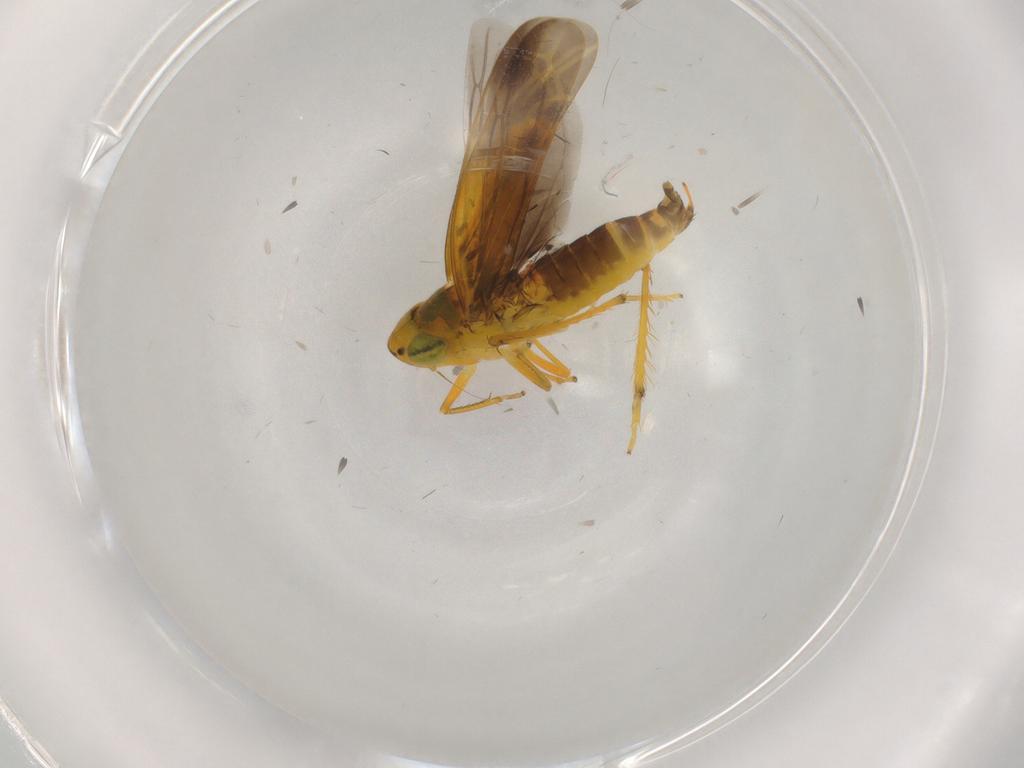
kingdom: Animalia
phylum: Arthropoda
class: Insecta
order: Hemiptera
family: Cicadellidae
